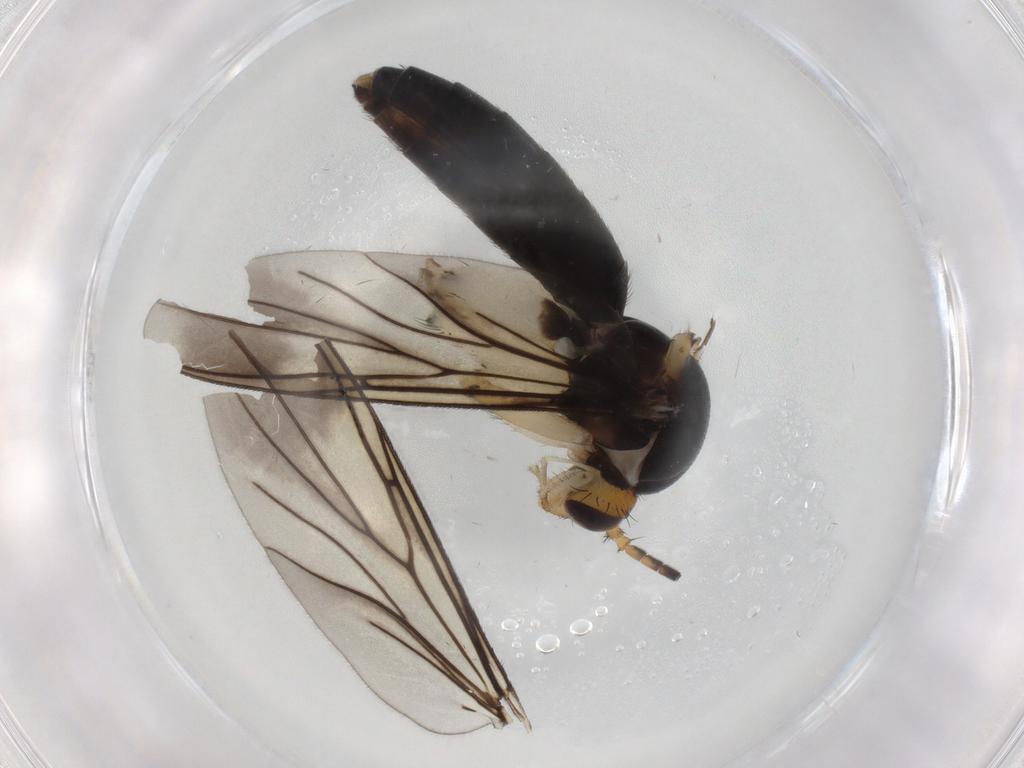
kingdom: Animalia
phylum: Arthropoda
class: Insecta
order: Diptera
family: Mycetophilidae
